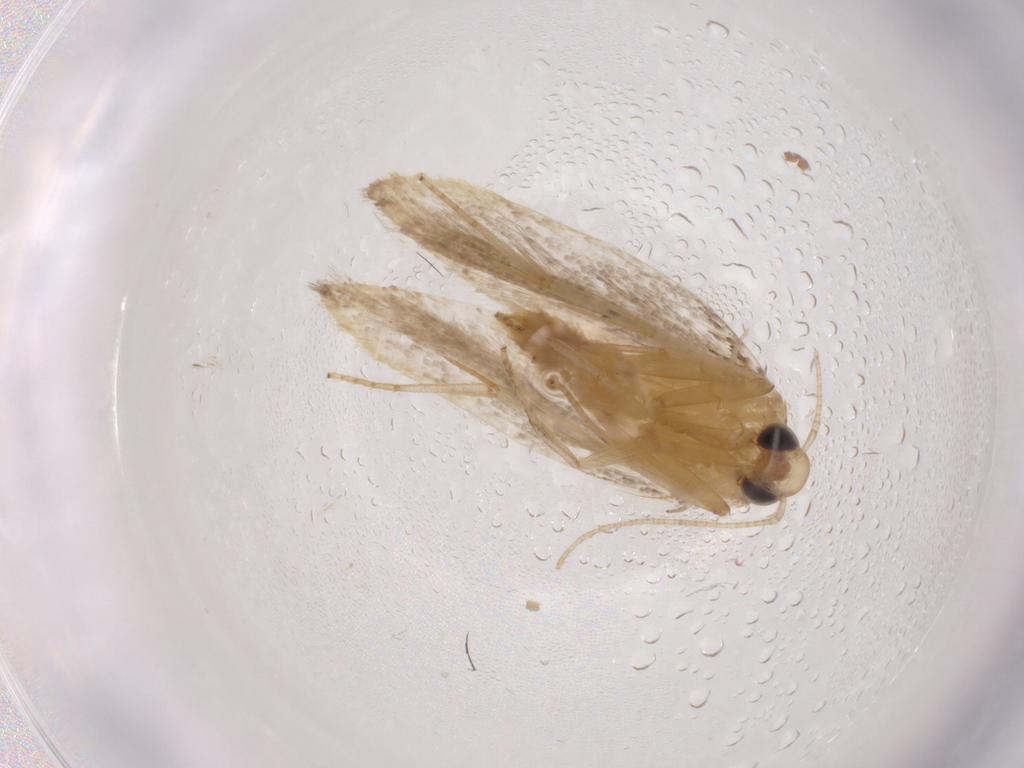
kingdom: Animalia
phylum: Arthropoda
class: Insecta
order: Lepidoptera
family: Autostichidae
